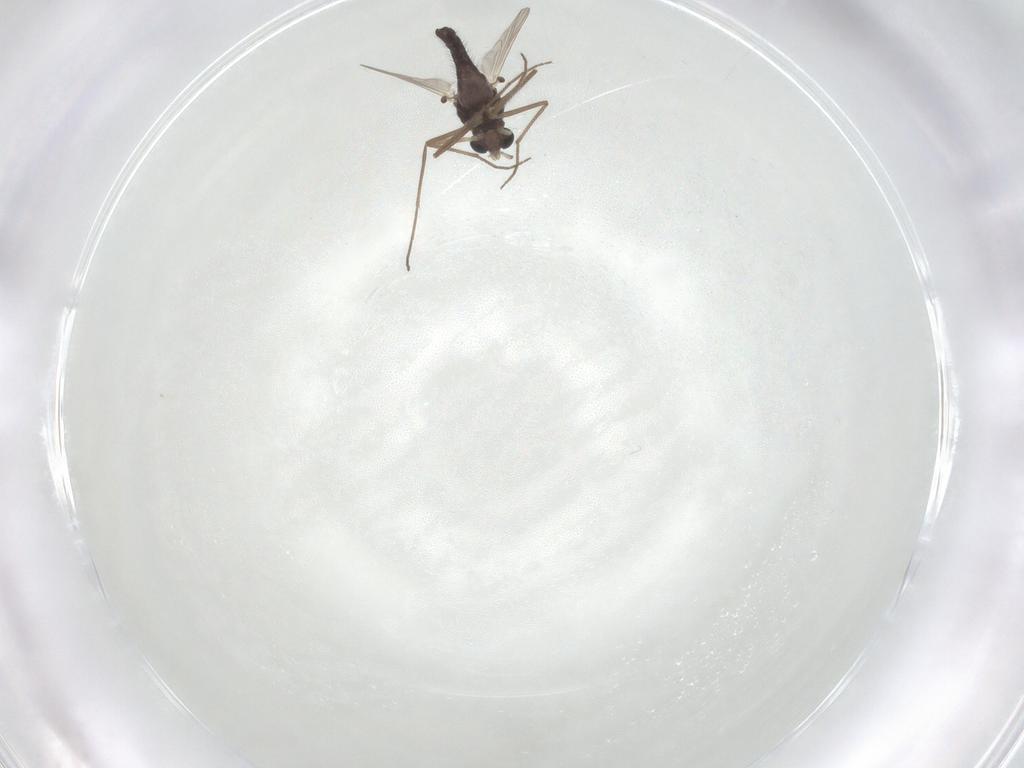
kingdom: Animalia
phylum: Arthropoda
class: Insecta
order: Diptera
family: Chironomidae
